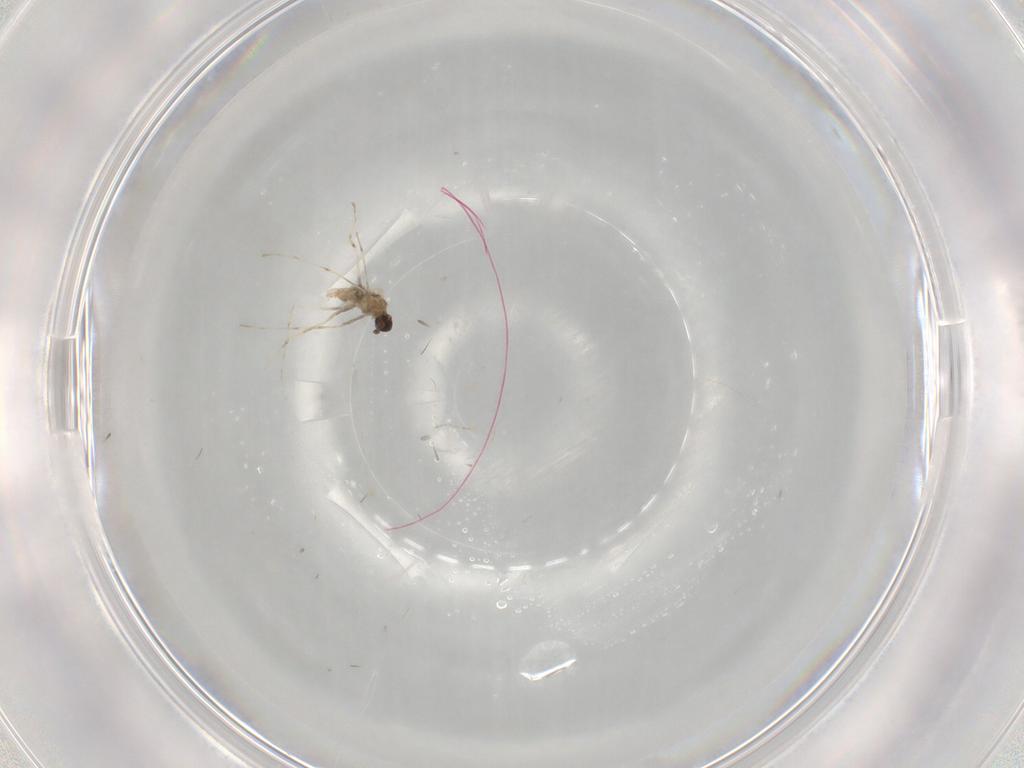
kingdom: Animalia
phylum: Arthropoda
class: Insecta
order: Diptera
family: Cecidomyiidae
